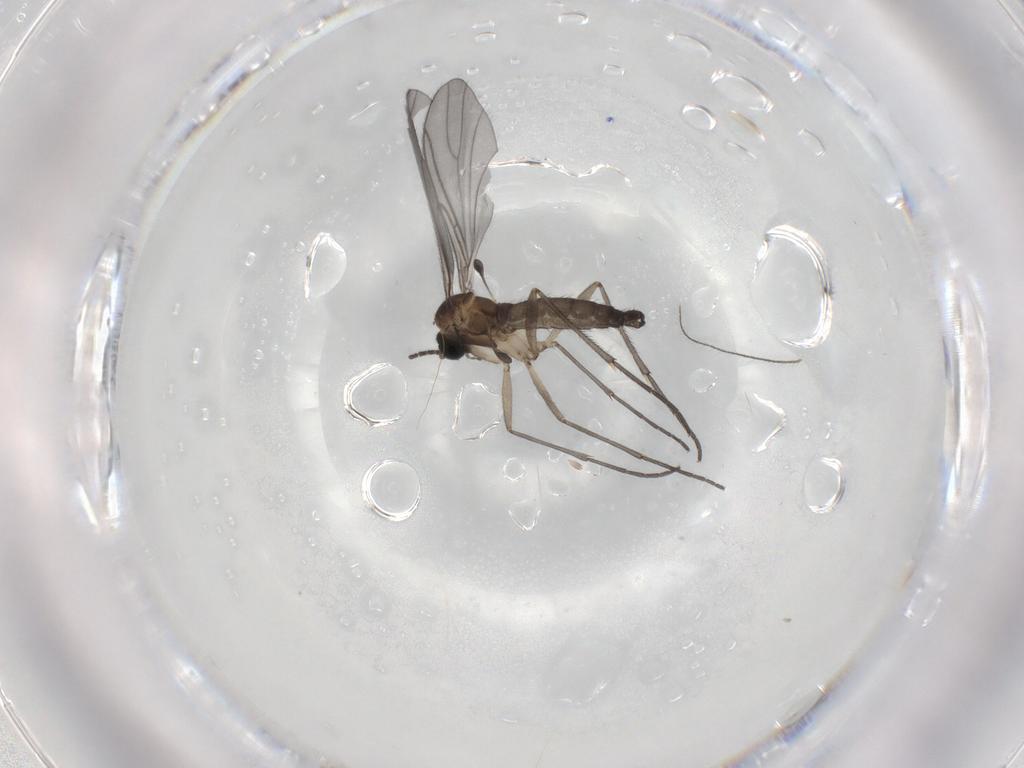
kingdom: Animalia
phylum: Arthropoda
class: Insecta
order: Diptera
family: Sciaridae
